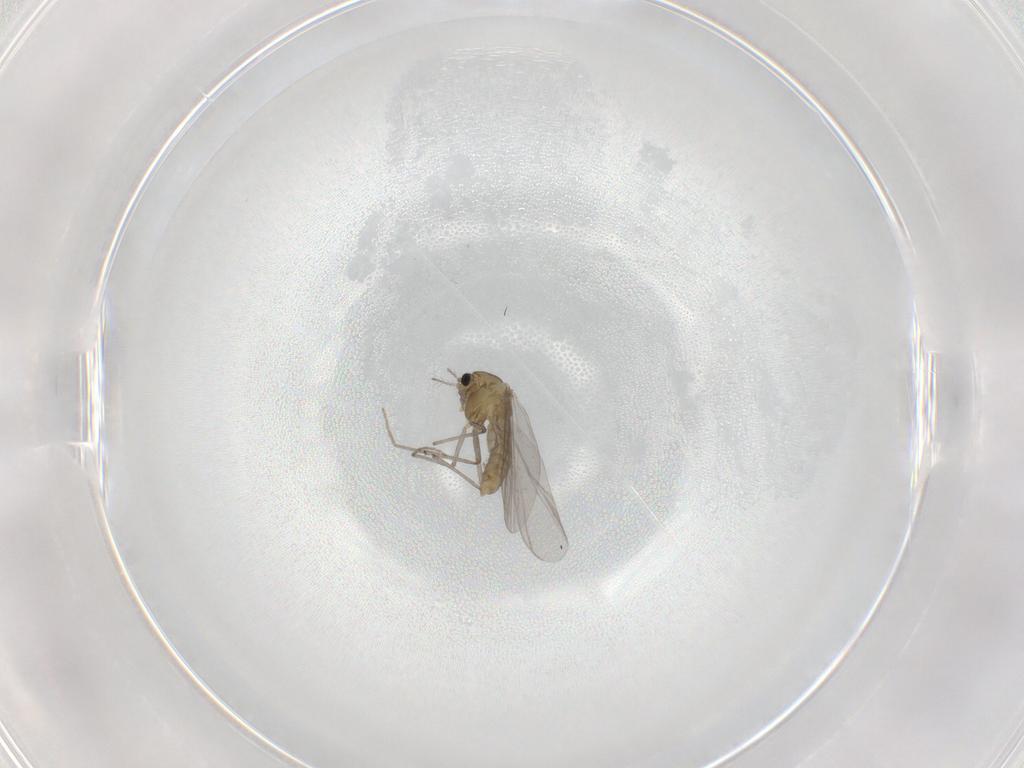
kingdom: Animalia
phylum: Arthropoda
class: Insecta
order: Diptera
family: Chironomidae
